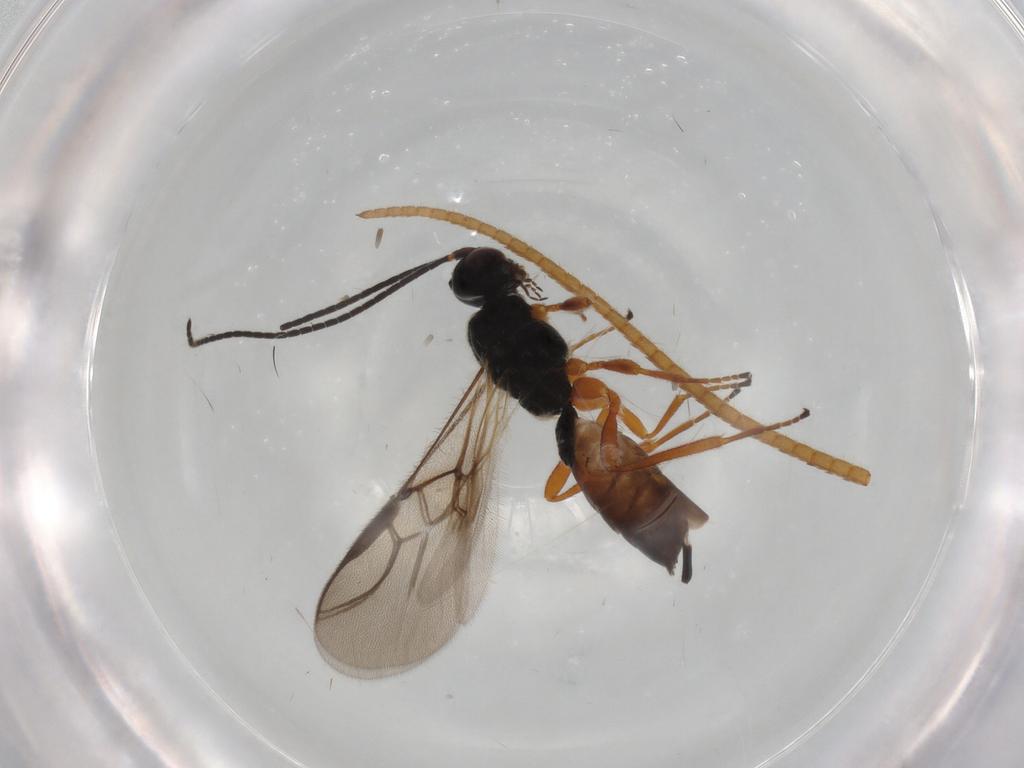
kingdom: Animalia
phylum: Arthropoda
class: Insecta
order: Hymenoptera
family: Braconidae
